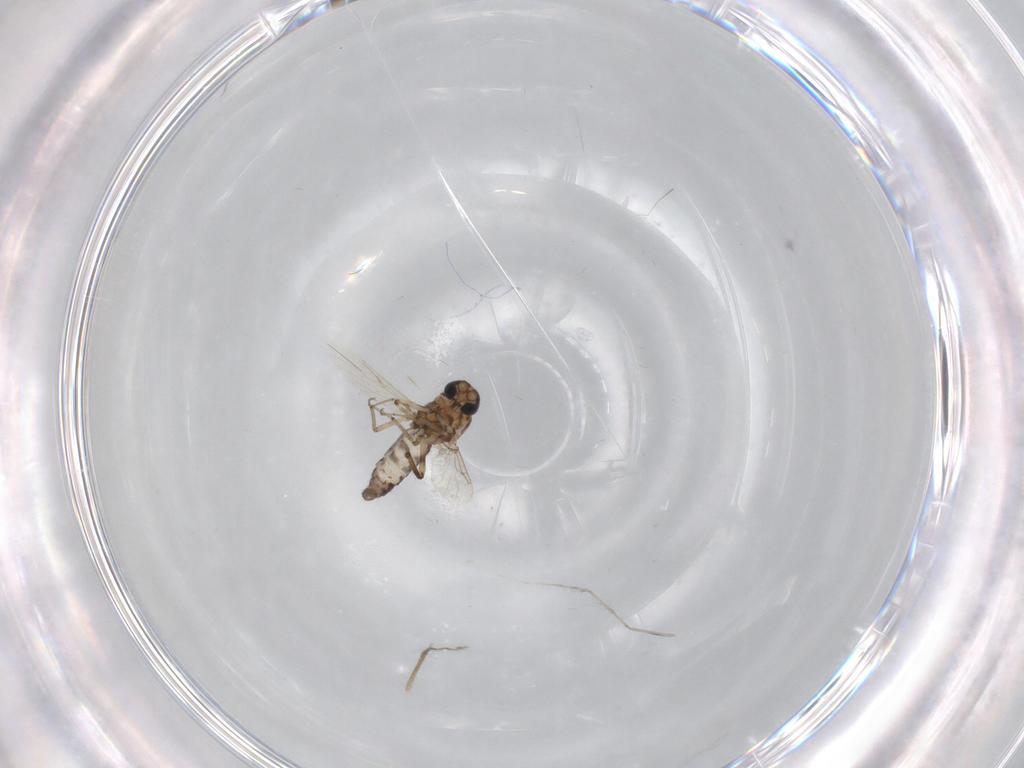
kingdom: Animalia
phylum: Arthropoda
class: Insecta
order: Diptera
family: Ceratopogonidae
